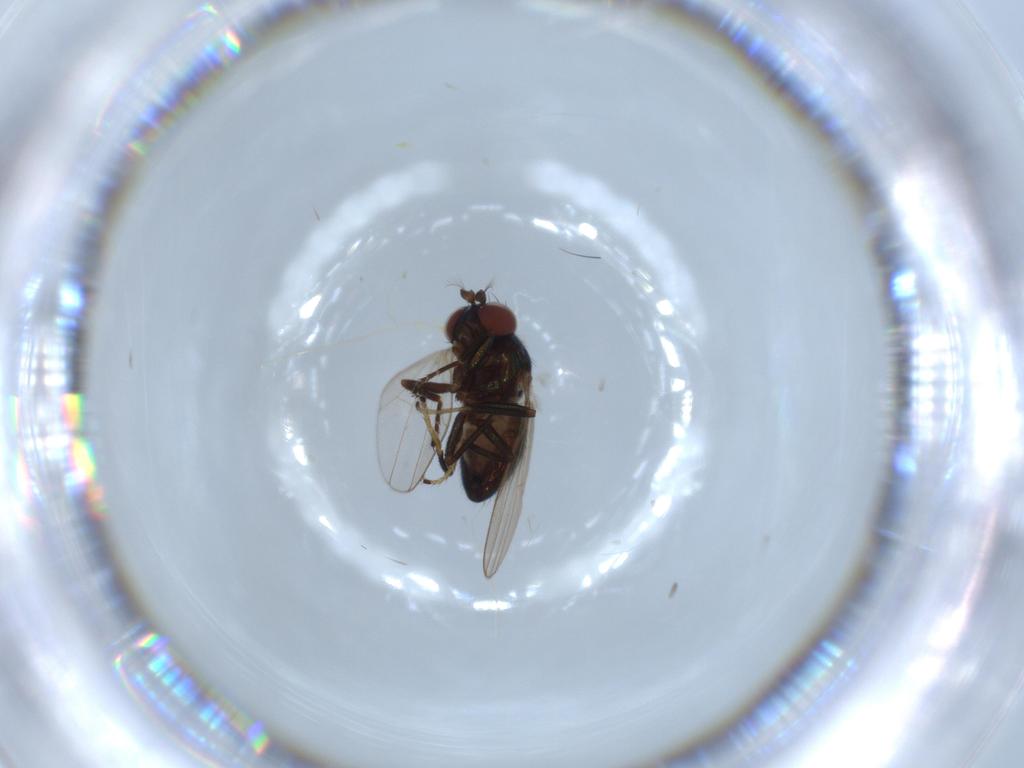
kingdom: Animalia
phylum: Arthropoda
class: Insecta
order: Diptera
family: Cecidomyiidae
